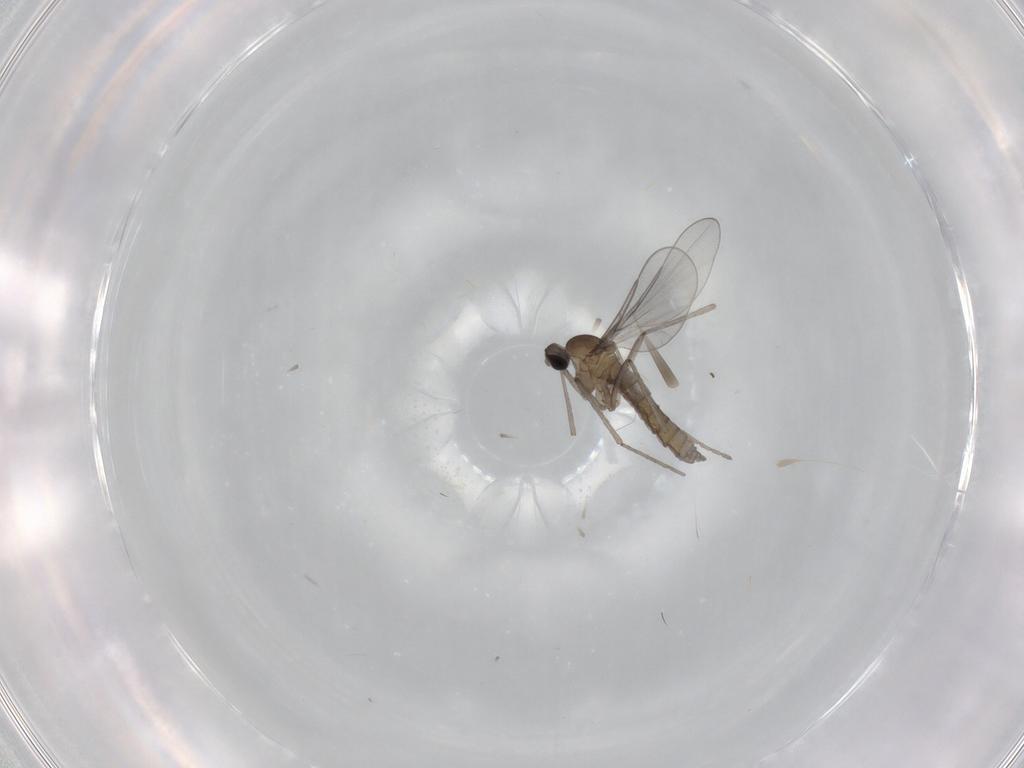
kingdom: Animalia
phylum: Arthropoda
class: Insecta
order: Diptera
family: Cecidomyiidae
